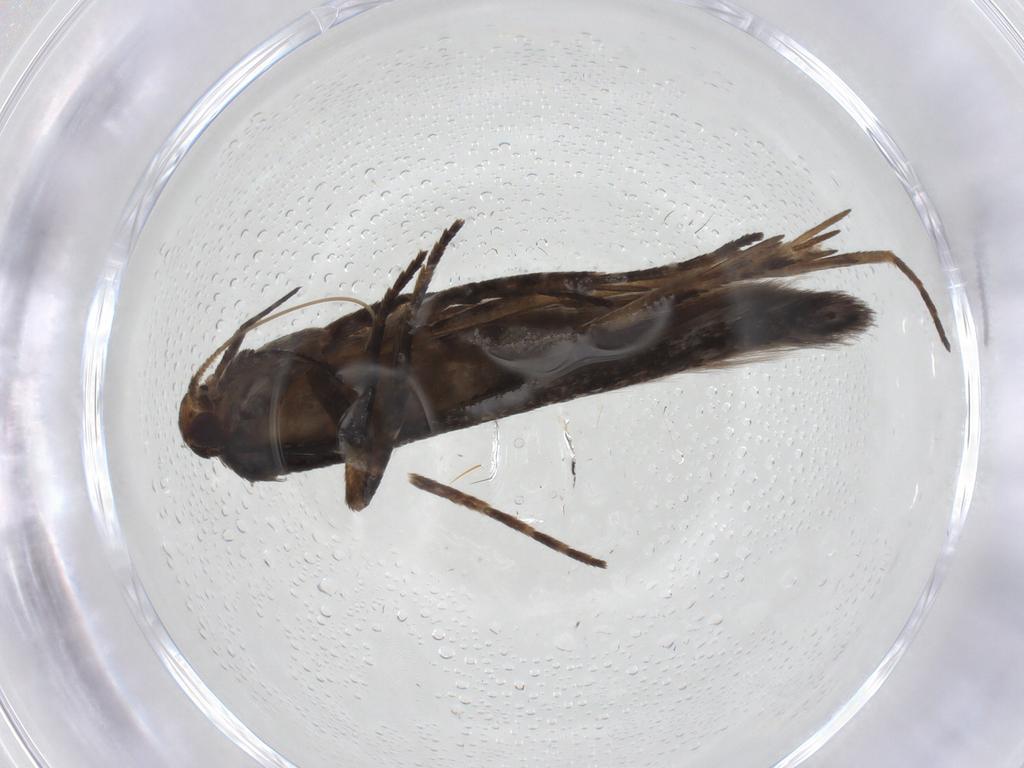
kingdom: Animalia
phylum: Arthropoda
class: Insecta
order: Lepidoptera
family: Gelechiidae
